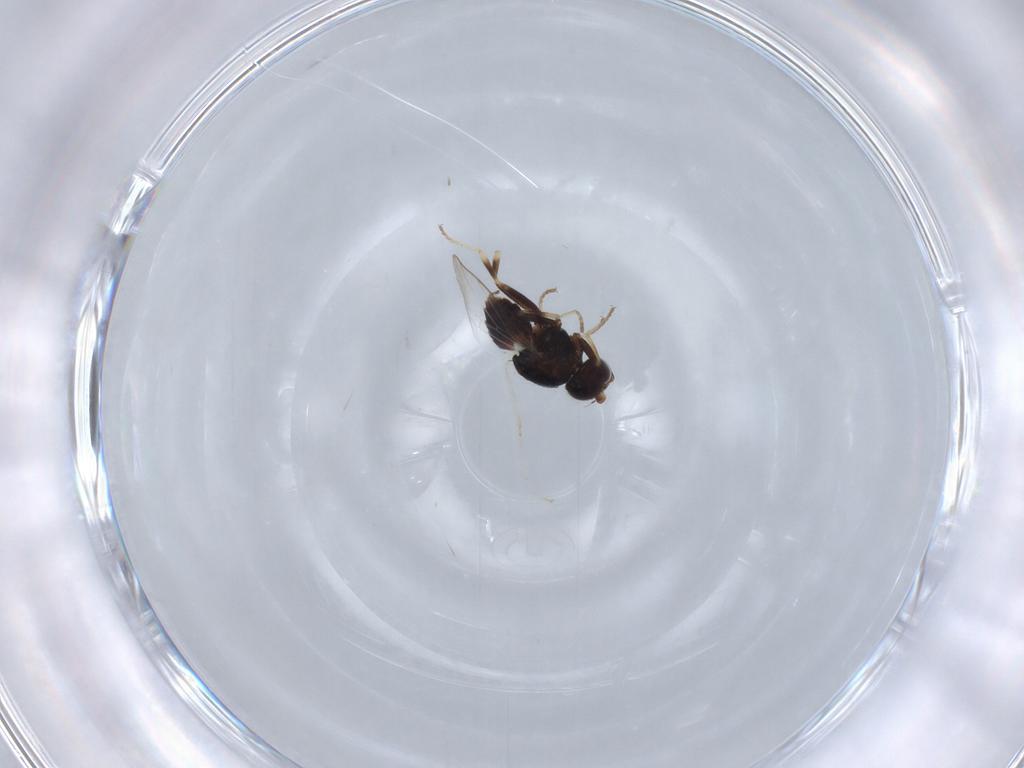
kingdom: Animalia
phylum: Arthropoda
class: Insecta
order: Diptera
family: Chloropidae
